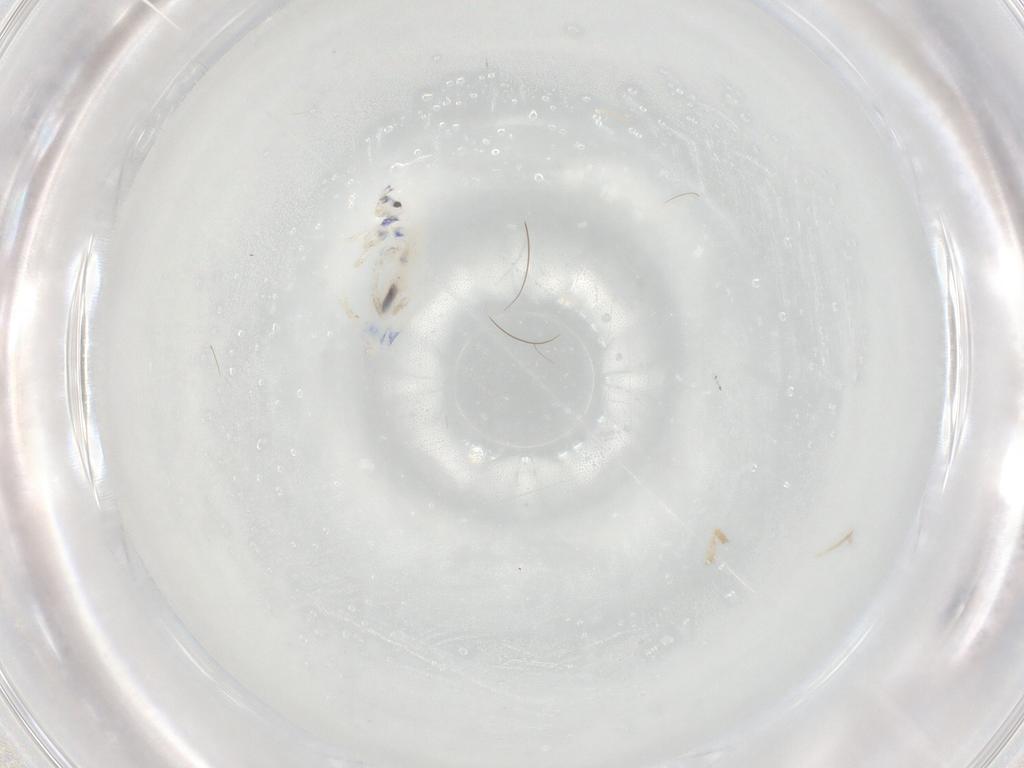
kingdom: Animalia
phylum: Arthropoda
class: Collembola
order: Entomobryomorpha
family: Entomobryidae
